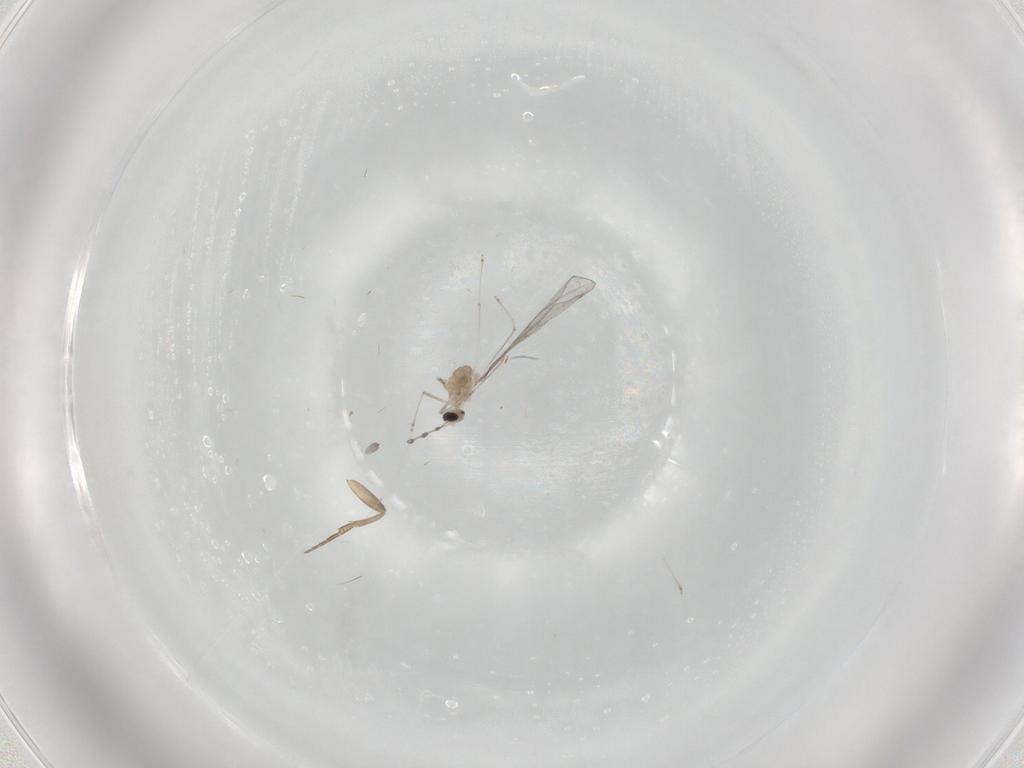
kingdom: Animalia
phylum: Arthropoda
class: Insecta
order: Diptera
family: Cecidomyiidae
